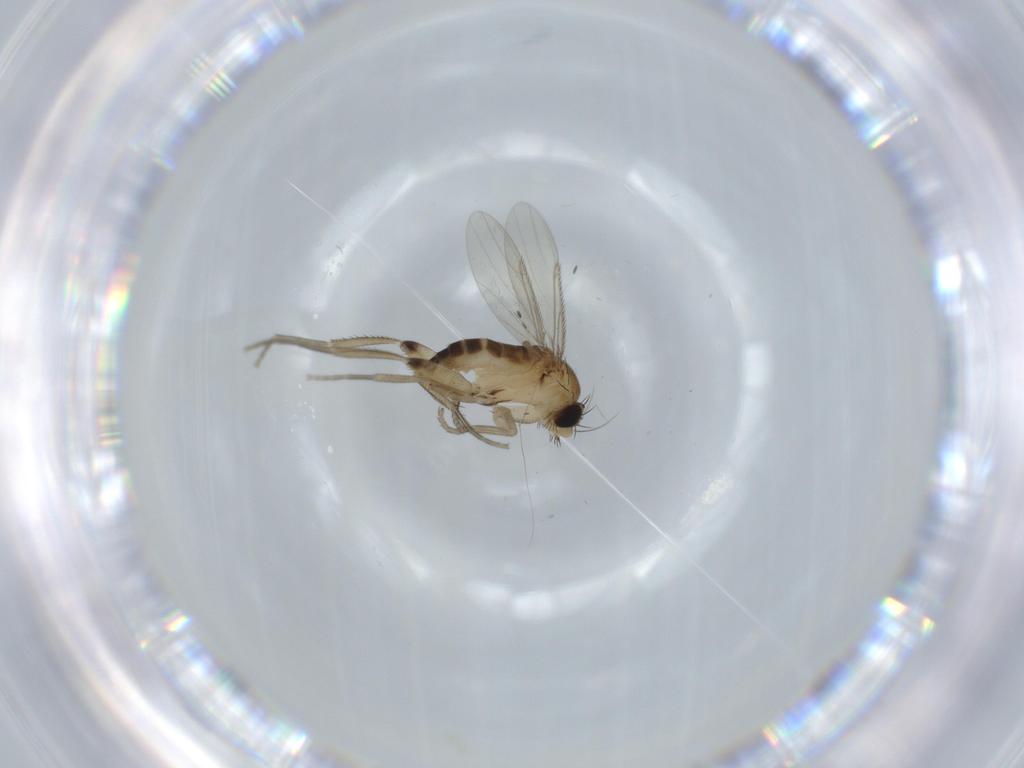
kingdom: Animalia
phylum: Arthropoda
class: Insecta
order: Diptera
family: Phoridae
